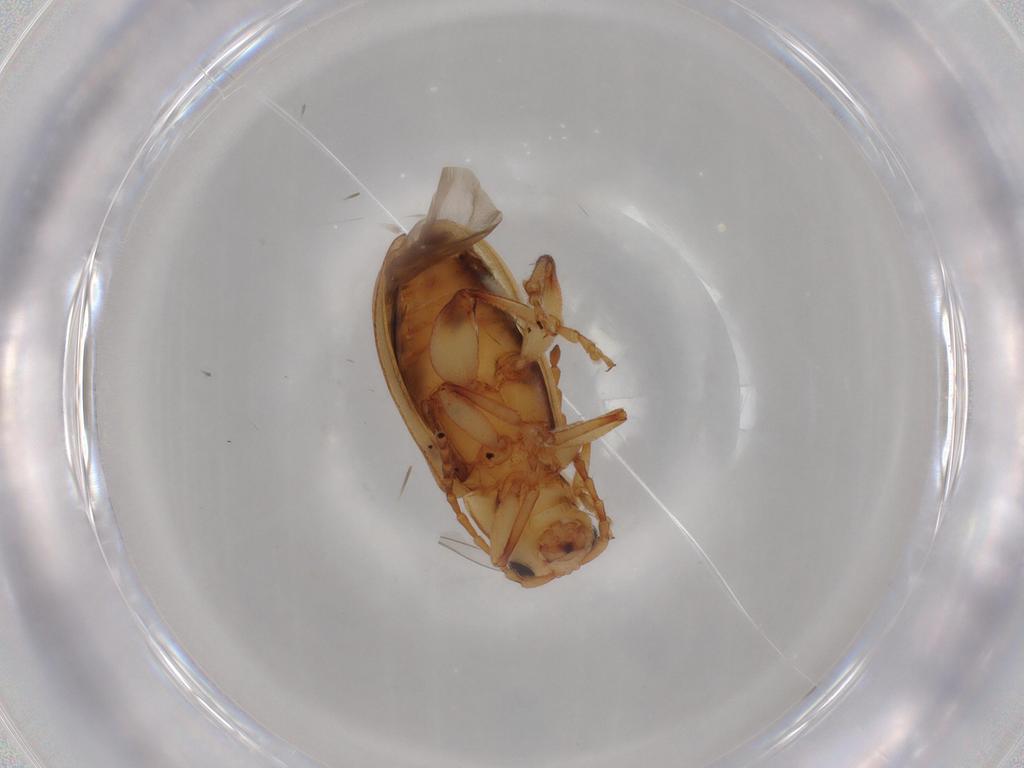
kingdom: Animalia
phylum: Arthropoda
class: Insecta
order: Coleoptera
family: Chrysomelidae
